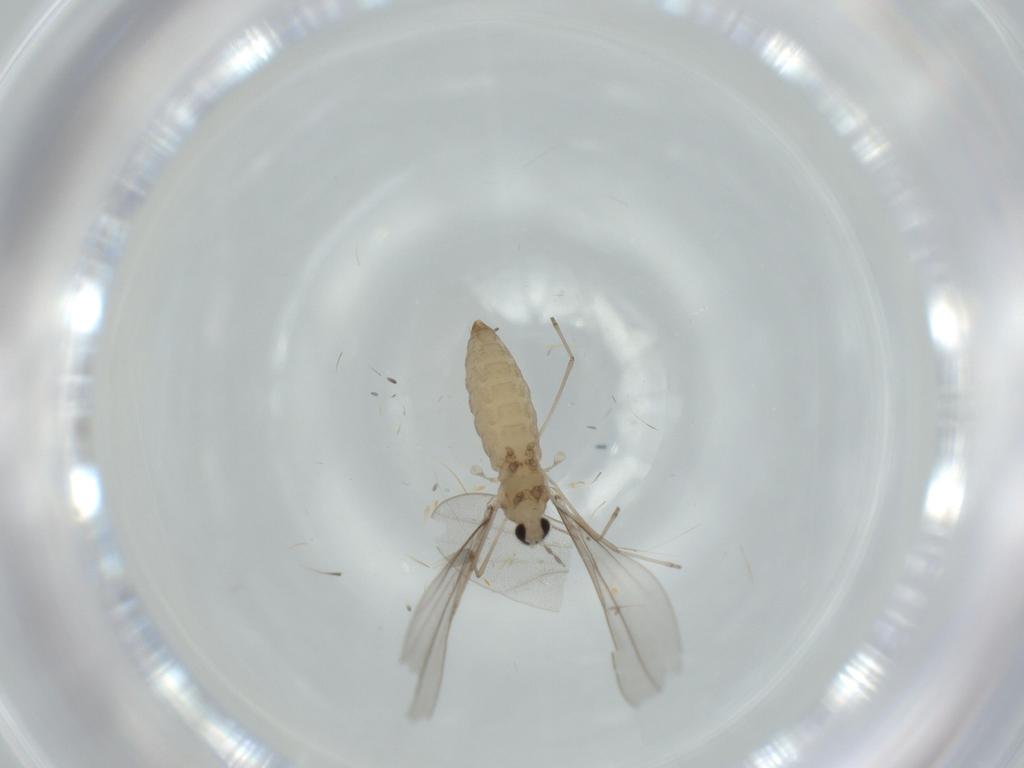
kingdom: Animalia
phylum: Arthropoda
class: Insecta
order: Diptera
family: Cecidomyiidae
